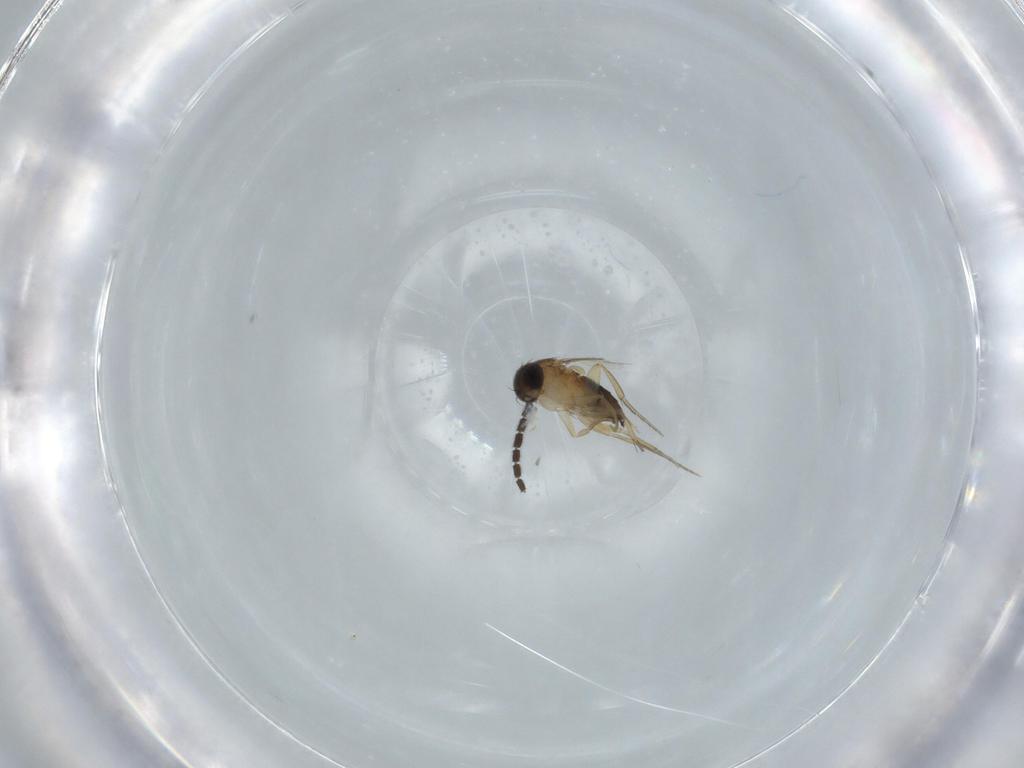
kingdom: Animalia
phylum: Arthropoda
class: Insecta
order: Diptera
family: Sciaridae
